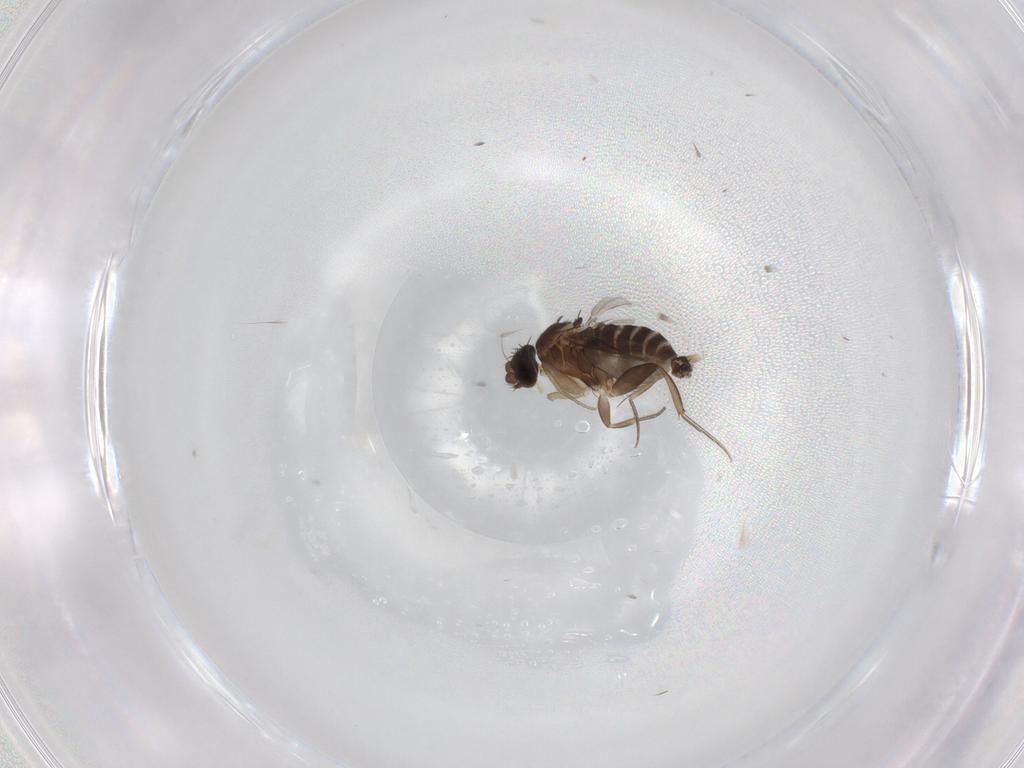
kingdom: Animalia
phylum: Arthropoda
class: Insecta
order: Diptera
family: Phoridae
